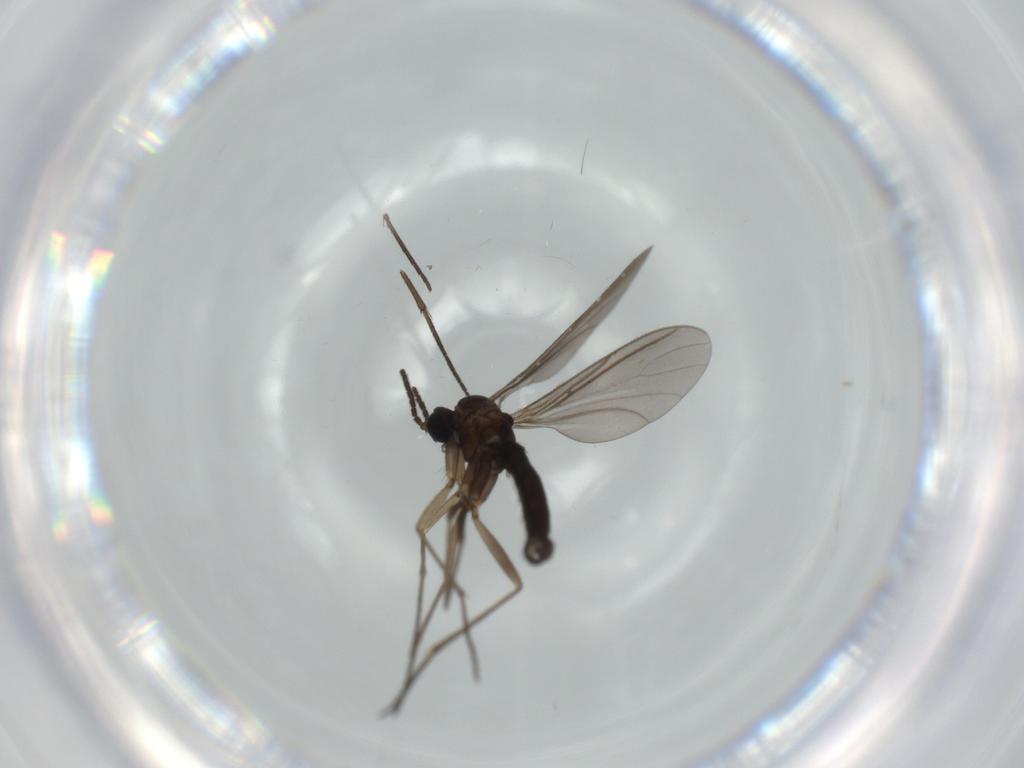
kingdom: Animalia
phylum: Arthropoda
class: Insecta
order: Diptera
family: Sciaridae
